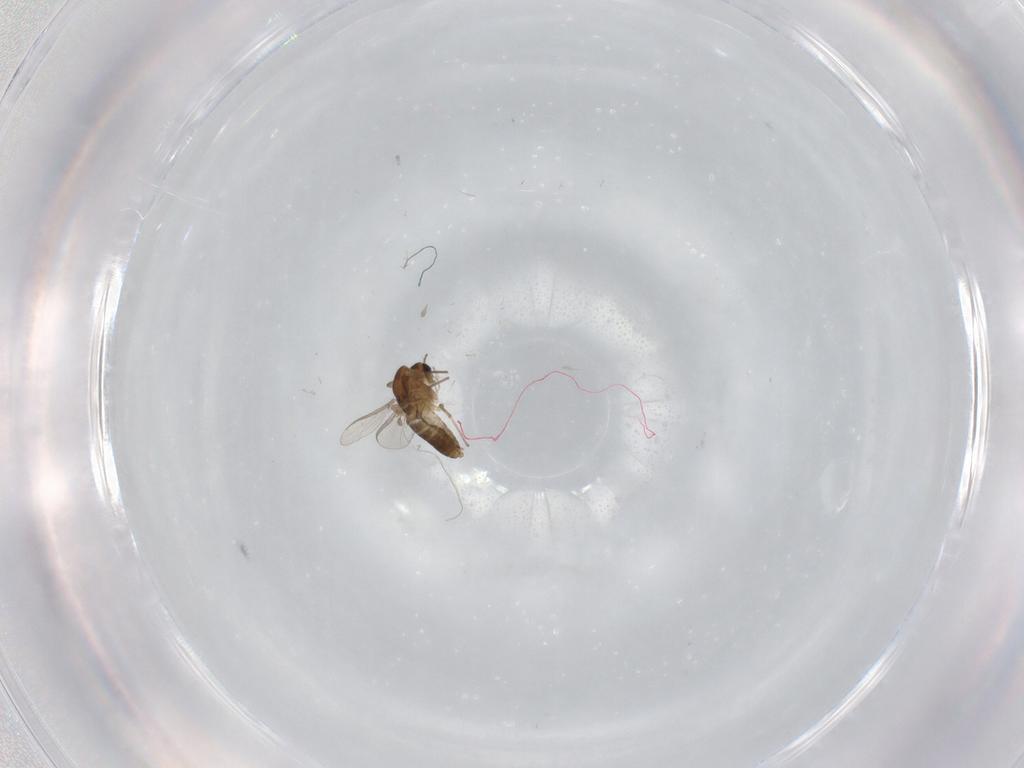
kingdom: Animalia
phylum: Arthropoda
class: Insecta
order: Diptera
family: Chironomidae
